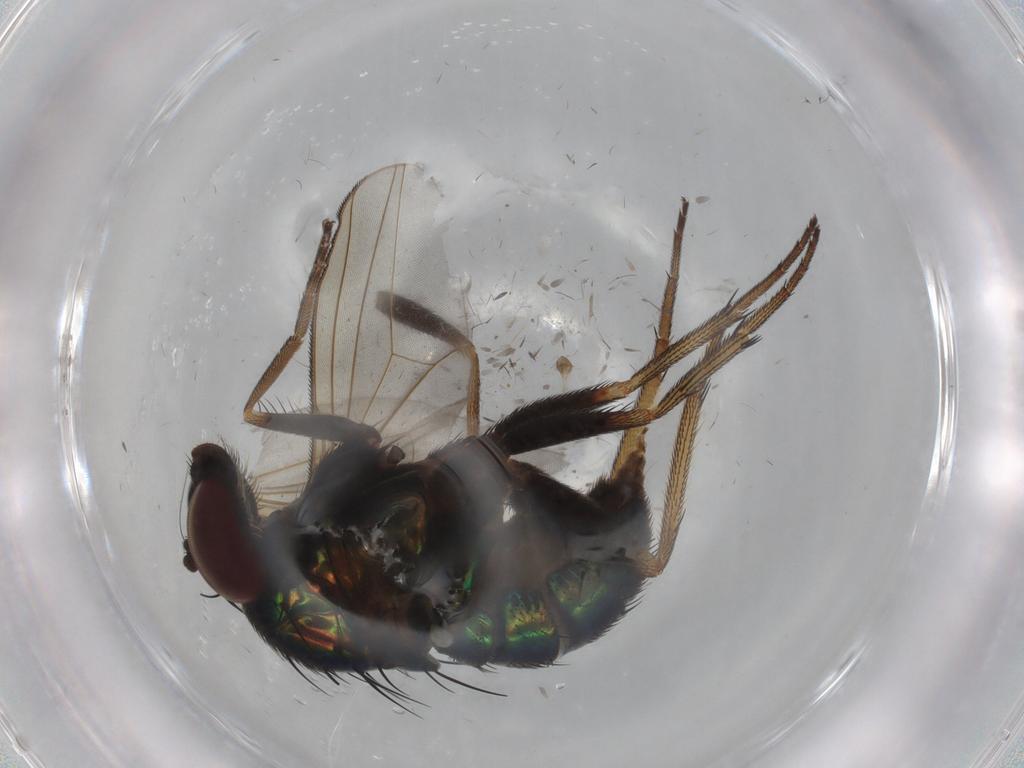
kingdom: Animalia
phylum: Arthropoda
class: Insecta
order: Diptera
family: Dolichopodidae
